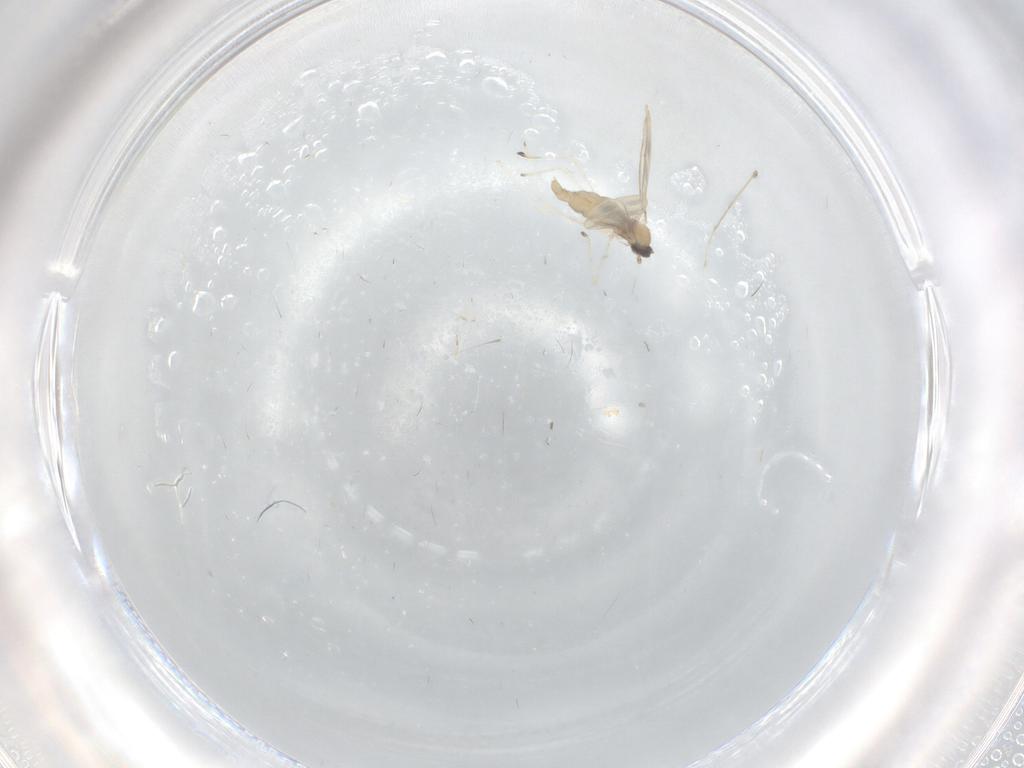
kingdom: Animalia
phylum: Arthropoda
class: Insecta
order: Diptera
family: Cecidomyiidae
